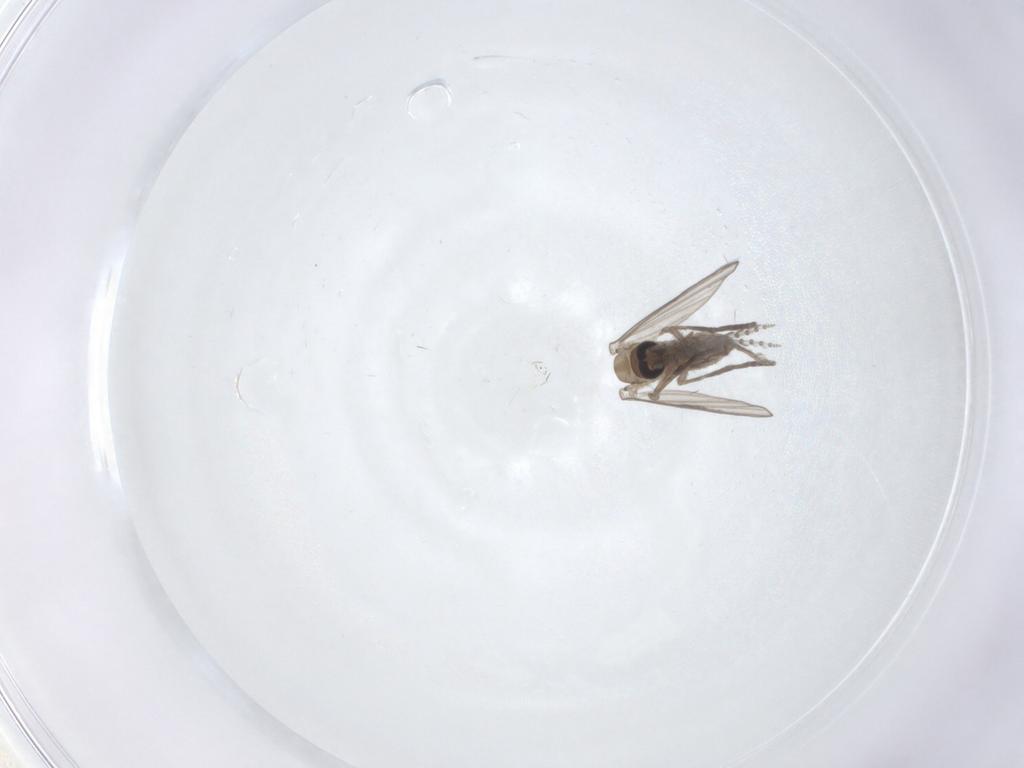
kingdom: Animalia
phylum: Arthropoda
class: Insecta
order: Diptera
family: Psychodidae
